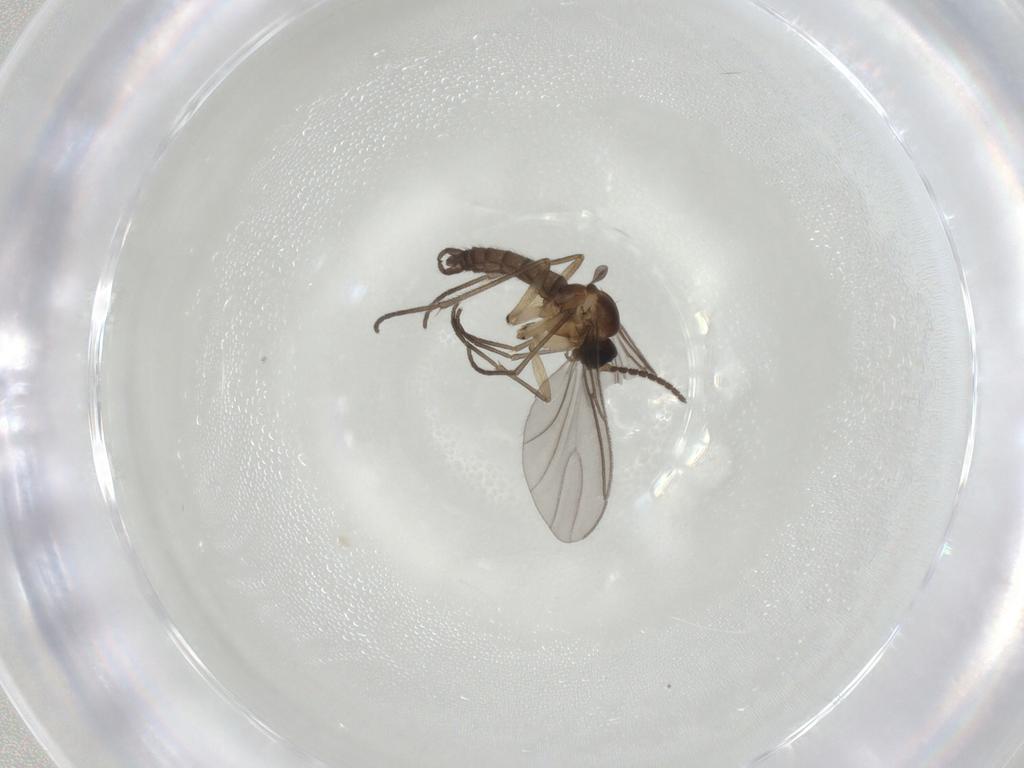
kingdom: Animalia
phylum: Arthropoda
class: Insecta
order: Diptera
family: Sciaridae
